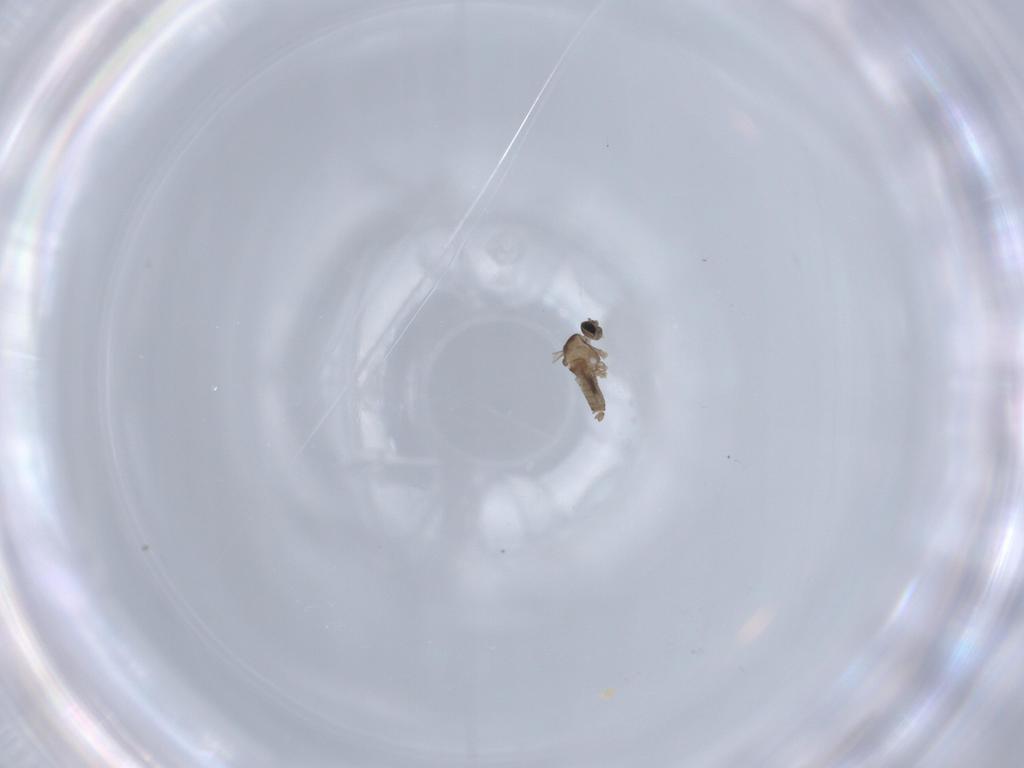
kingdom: Animalia
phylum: Arthropoda
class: Insecta
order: Diptera
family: Cecidomyiidae
